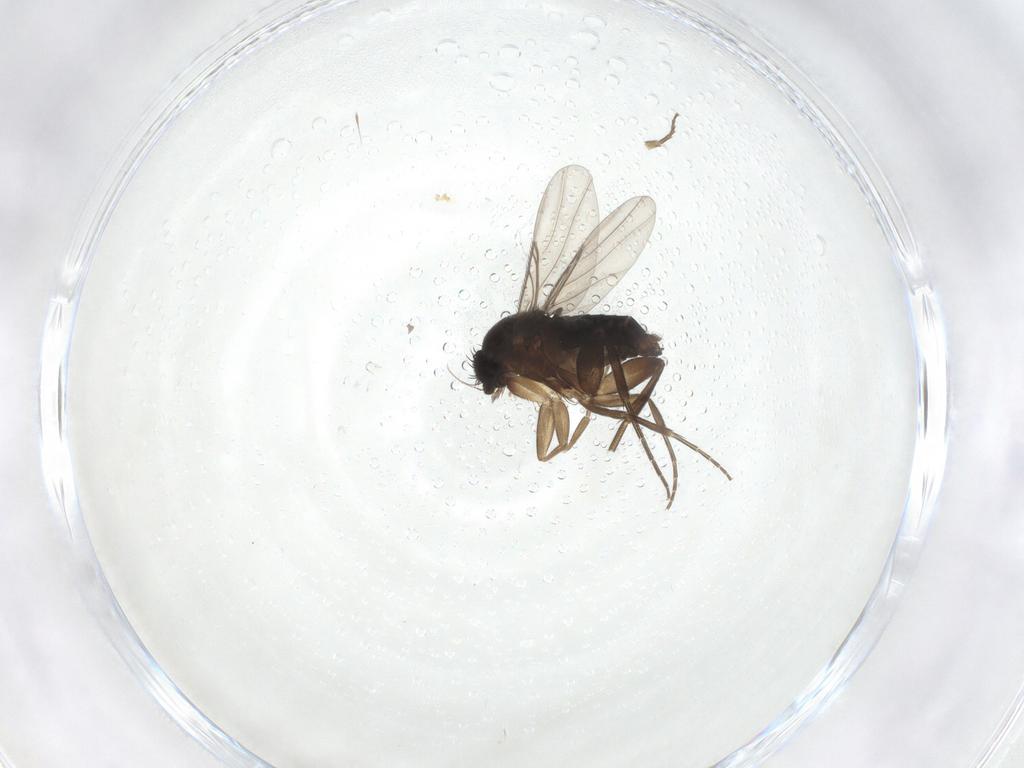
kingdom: Animalia
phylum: Arthropoda
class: Insecta
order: Diptera
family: Phoridae
